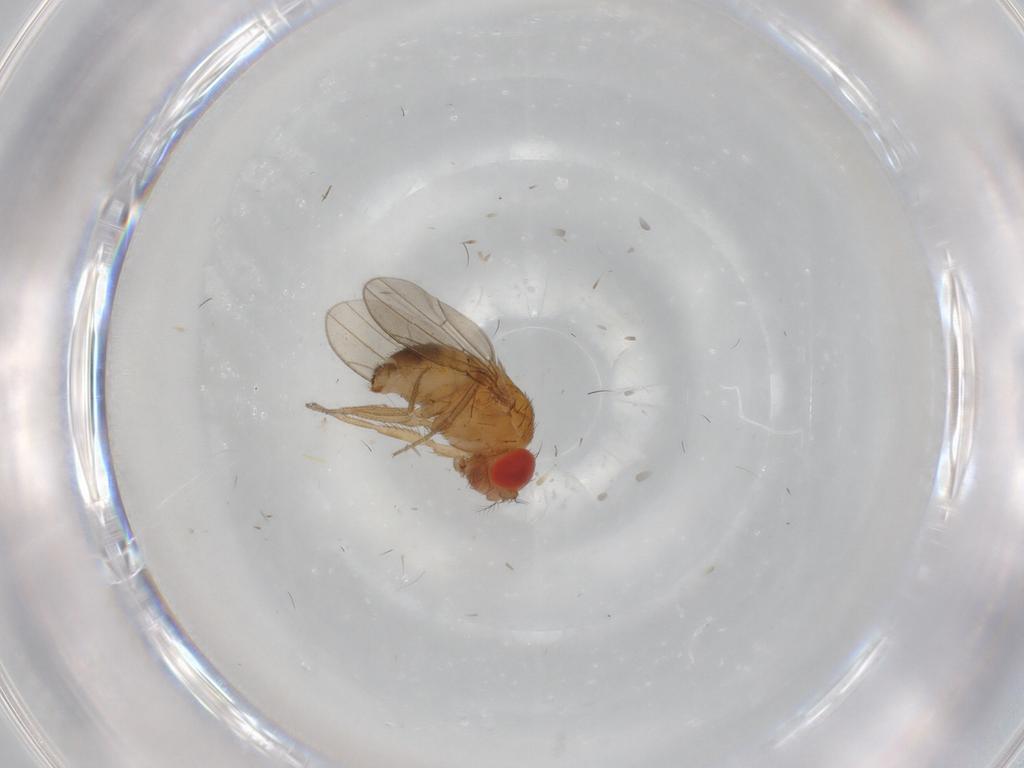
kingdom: Animalia
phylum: Arthropoda
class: Insecta
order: Diptera
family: Drosophilidae
